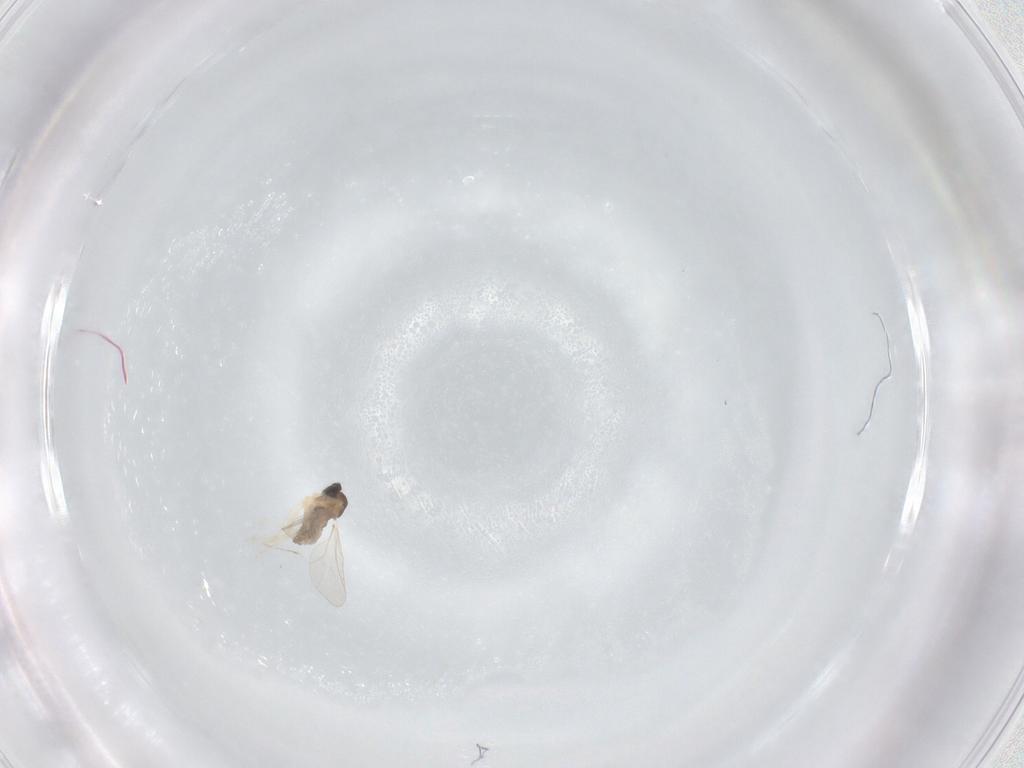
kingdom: Animalia
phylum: Arthropoda
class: Insecta
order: Diptera
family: Cecidomyiidae
